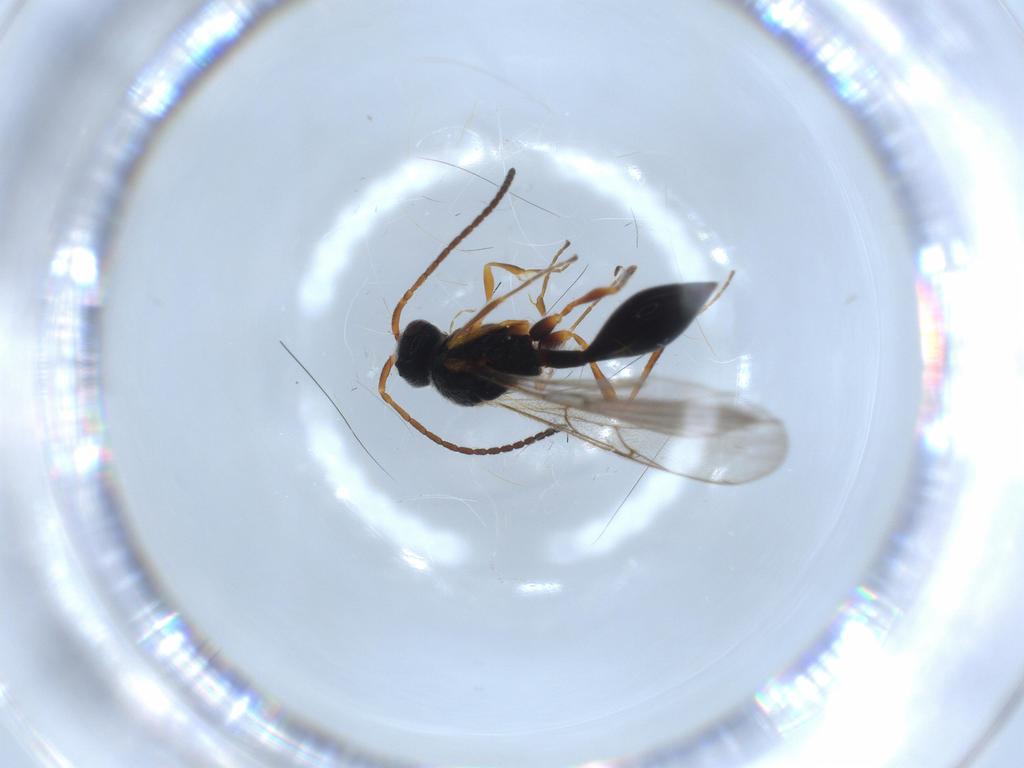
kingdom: Animalia
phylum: Arthropoda
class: Insecta
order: Hymenoptera
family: Diapriidae
